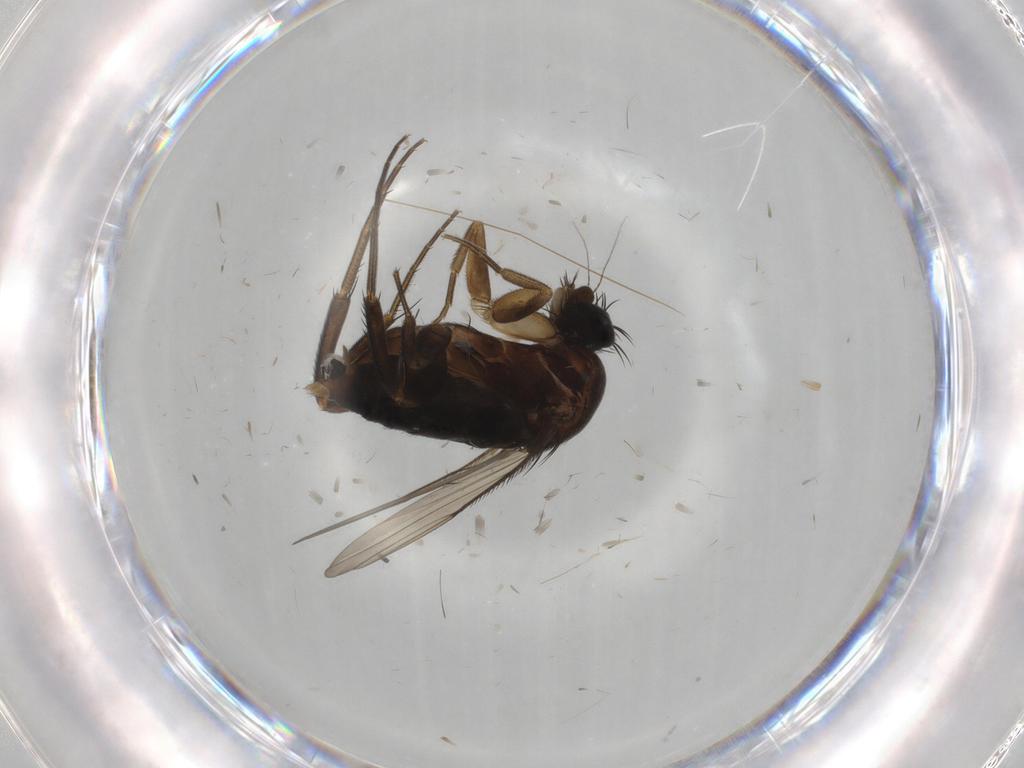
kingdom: Animalia
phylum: Arthropoda
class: Insecta
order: Diptera
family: Phoridae
